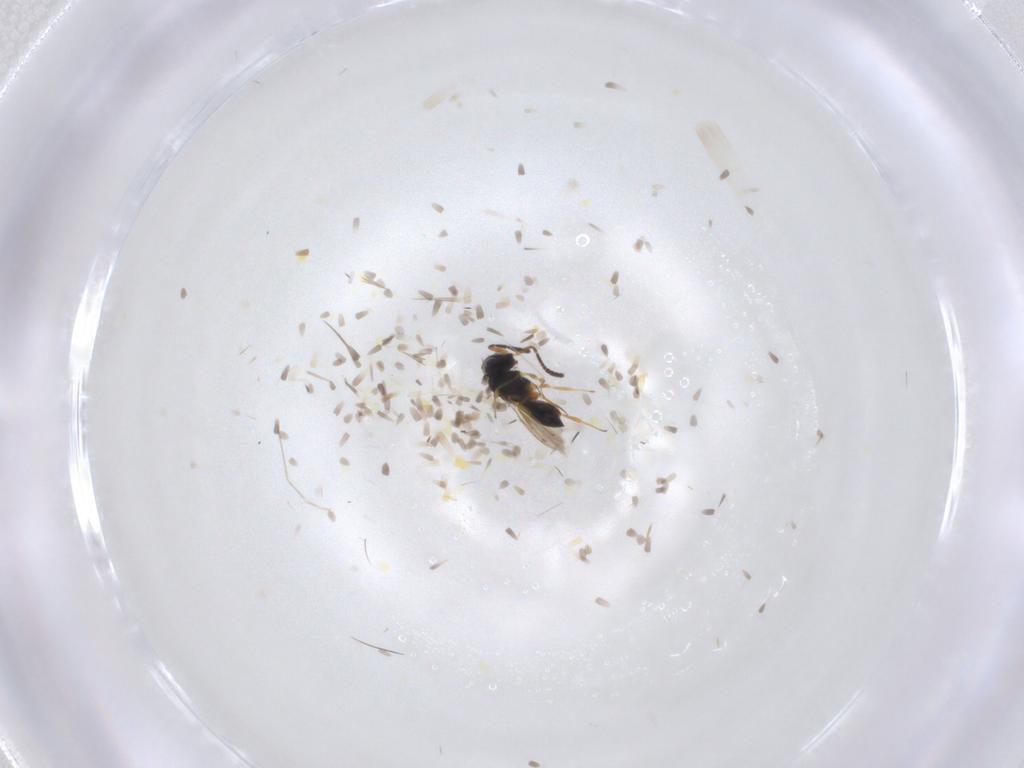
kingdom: Animalia
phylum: Arthropoda
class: Insecta
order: Hymenoptera
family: Scelionidae
